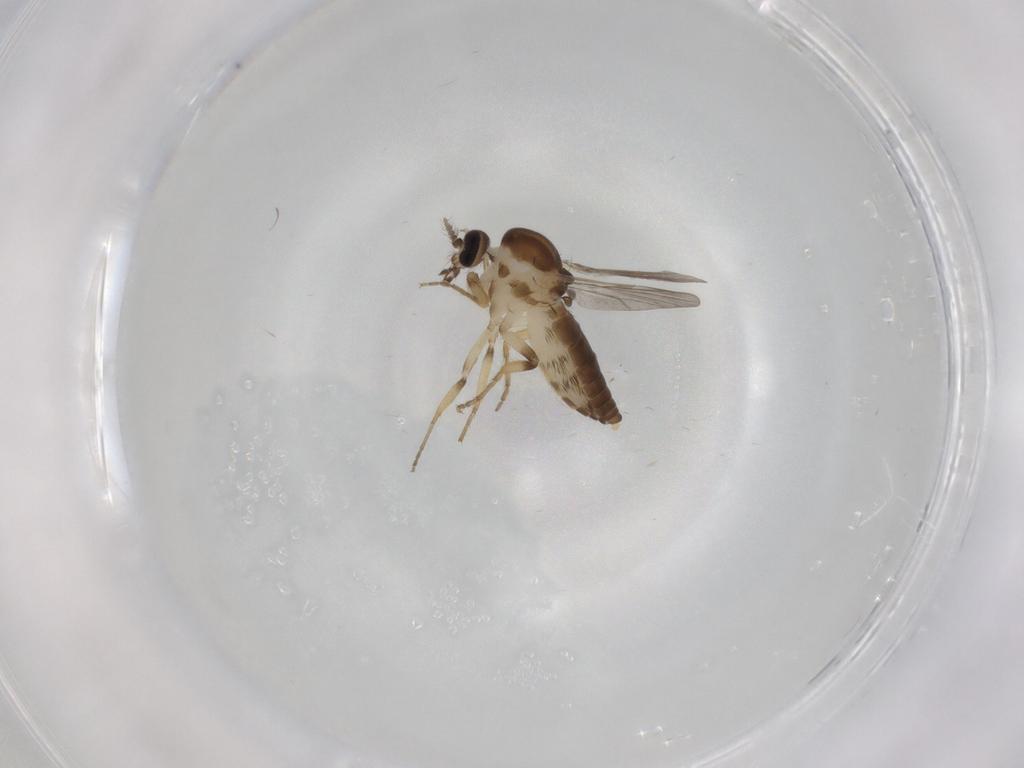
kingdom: Animalia
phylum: Arthropoda
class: Insecta
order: Diptera
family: Ceratopogonidae
